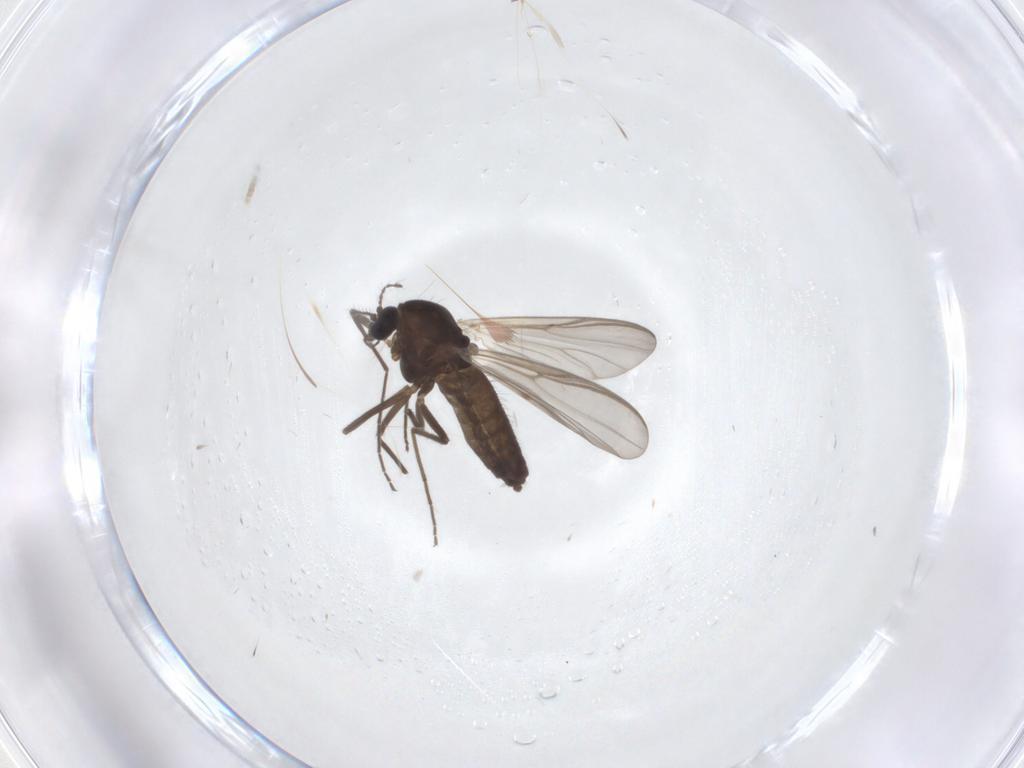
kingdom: Animalia
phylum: Arthropoda
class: Insecta
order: Diptera
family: Chironomidae
